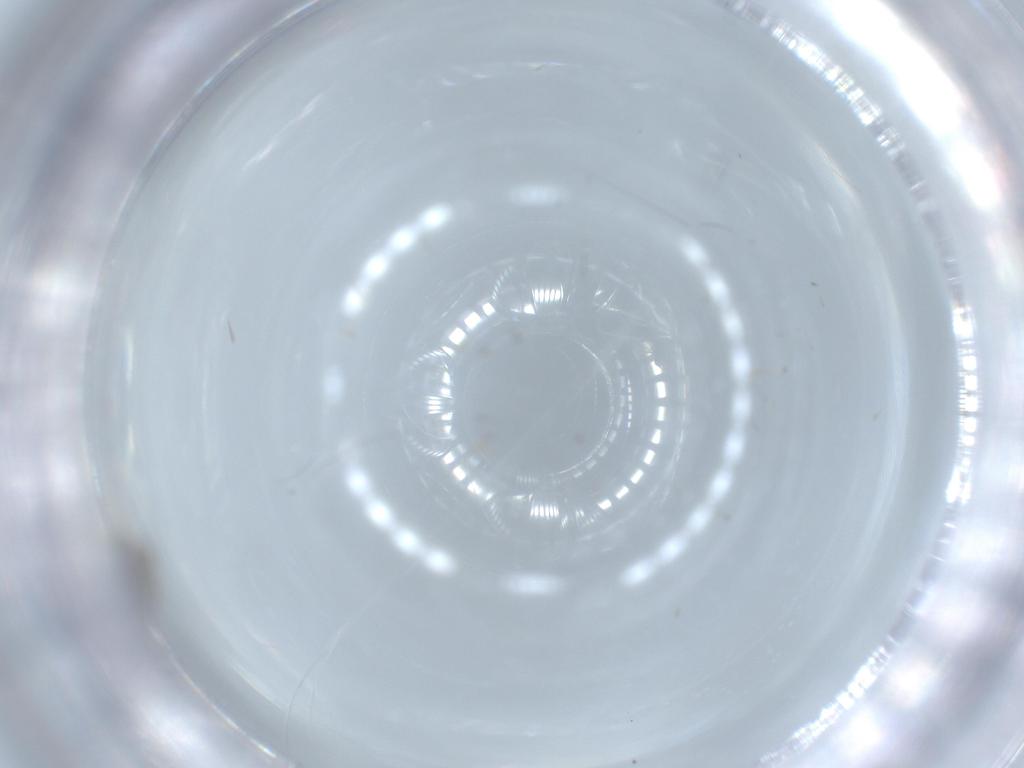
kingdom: Animalia
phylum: Arthropoda
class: Insecta
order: Diptera
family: Cecidomyiidae
